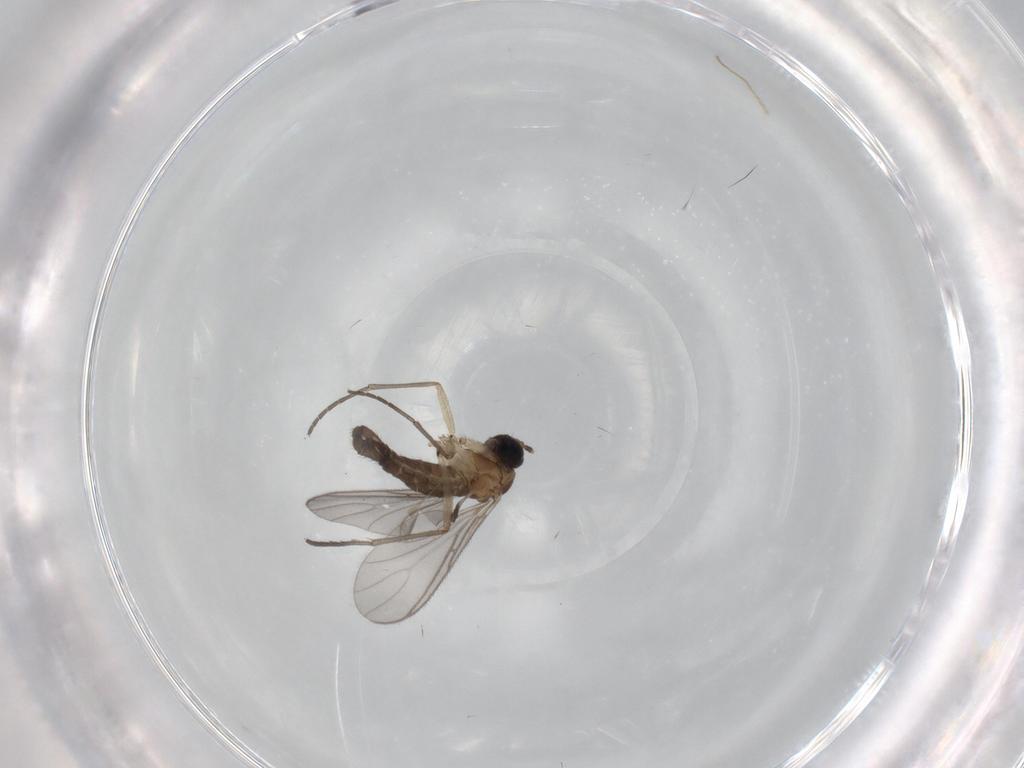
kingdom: Animalia
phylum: Arthropoda
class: Insecta
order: Diptera
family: Sciaridae
